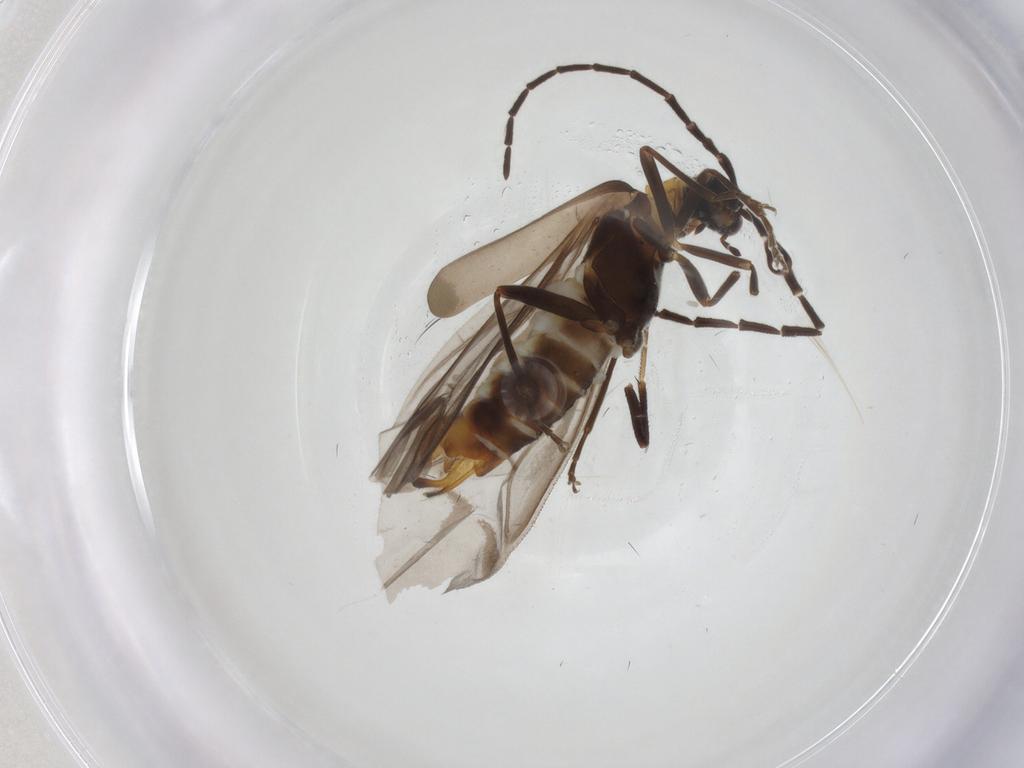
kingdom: Animalia
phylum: Arthropoda
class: Insecta
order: Coleoptera
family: Cantharidae
